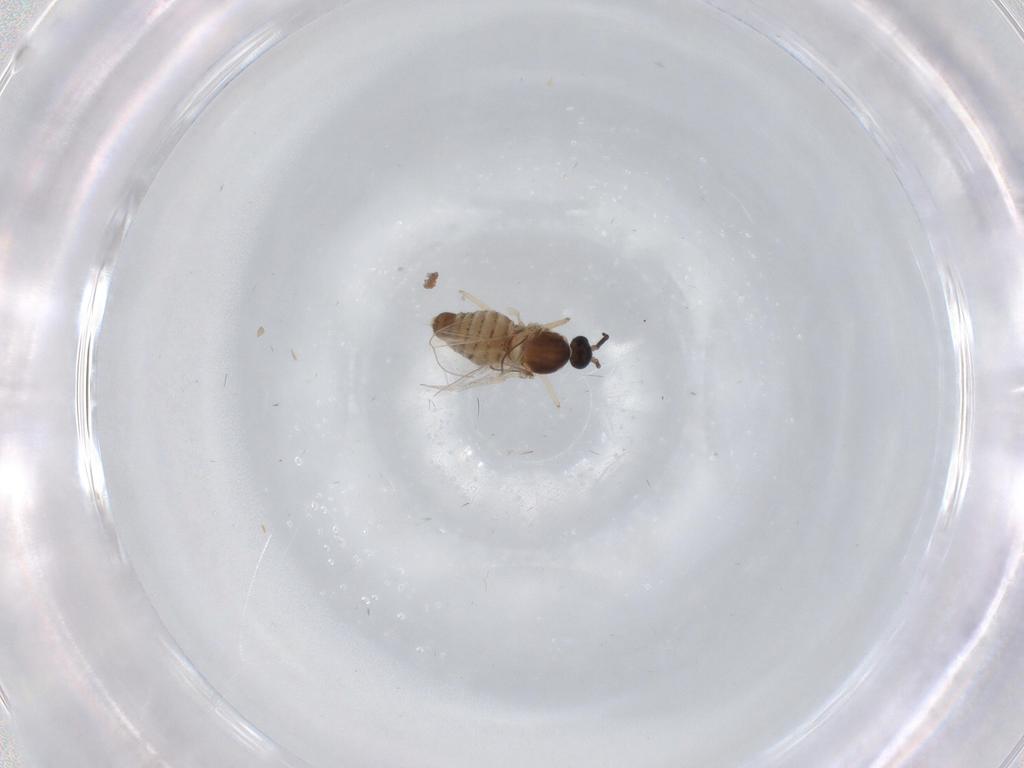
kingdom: Animalia
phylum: Arthropoda
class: Insecta
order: Diptera
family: Cecidomyiidae
